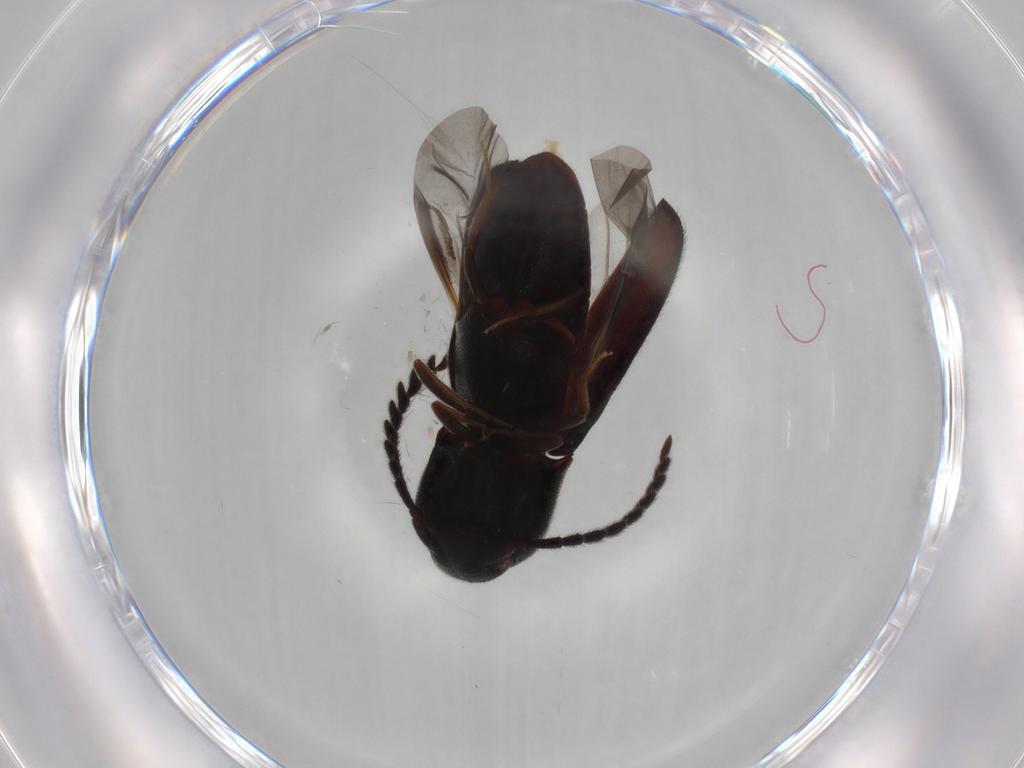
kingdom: Animalia
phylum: Arthropoda
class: Insecta
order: Coleoptera
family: Eucnemidae
